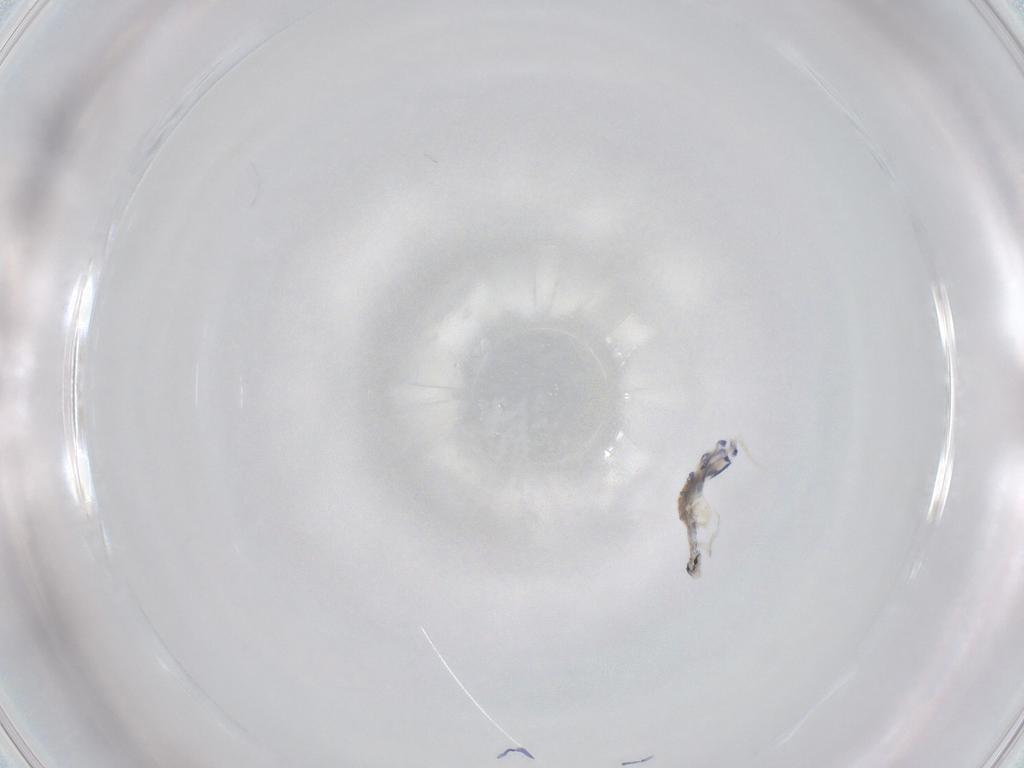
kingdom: Animalia
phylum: Arthropoda
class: Collembola
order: Entomobryomorpha
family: Entomobryidae
